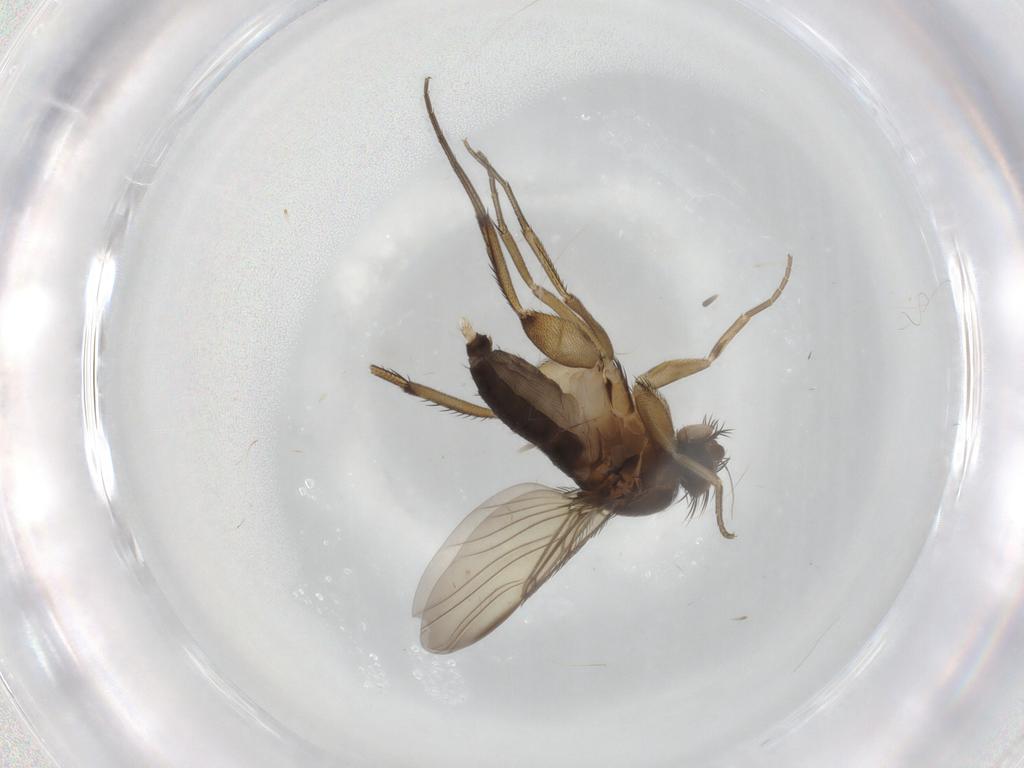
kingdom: Animalia
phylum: Arthropoda
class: Insecta
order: Diptera
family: Phoridae
